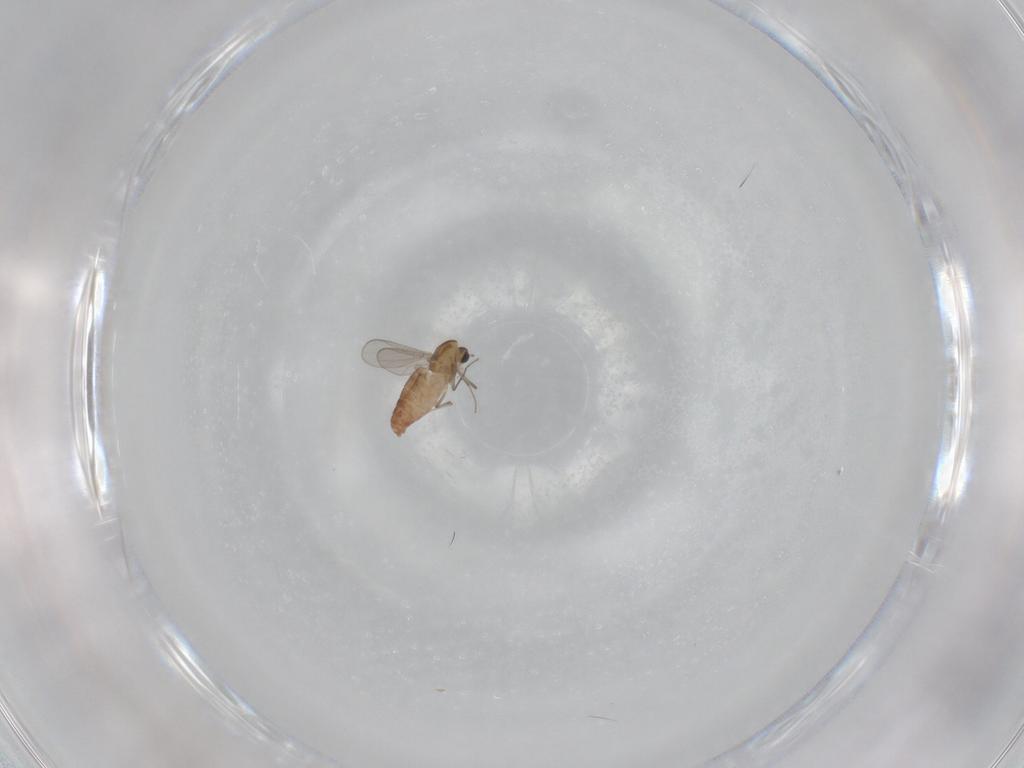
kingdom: Animalia
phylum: Arthropoda
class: Insecta
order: Diptera
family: Ceratopogonidae
